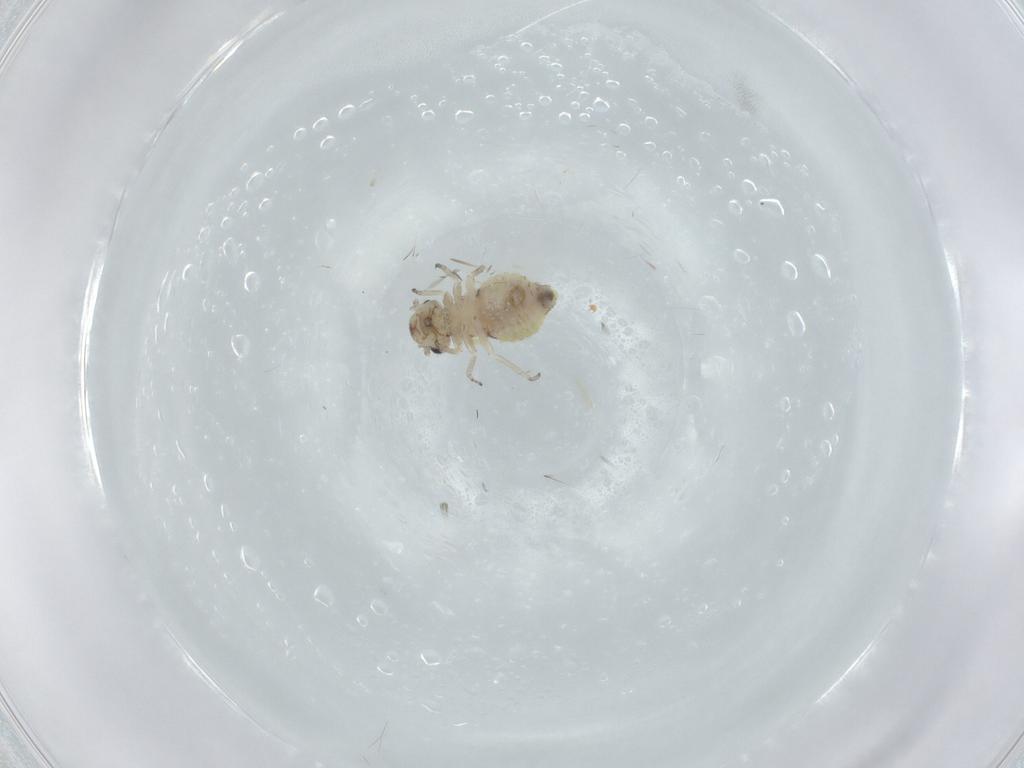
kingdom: Animalia
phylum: Arthropoda
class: Insecta
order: Psocodea
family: Psocidae
